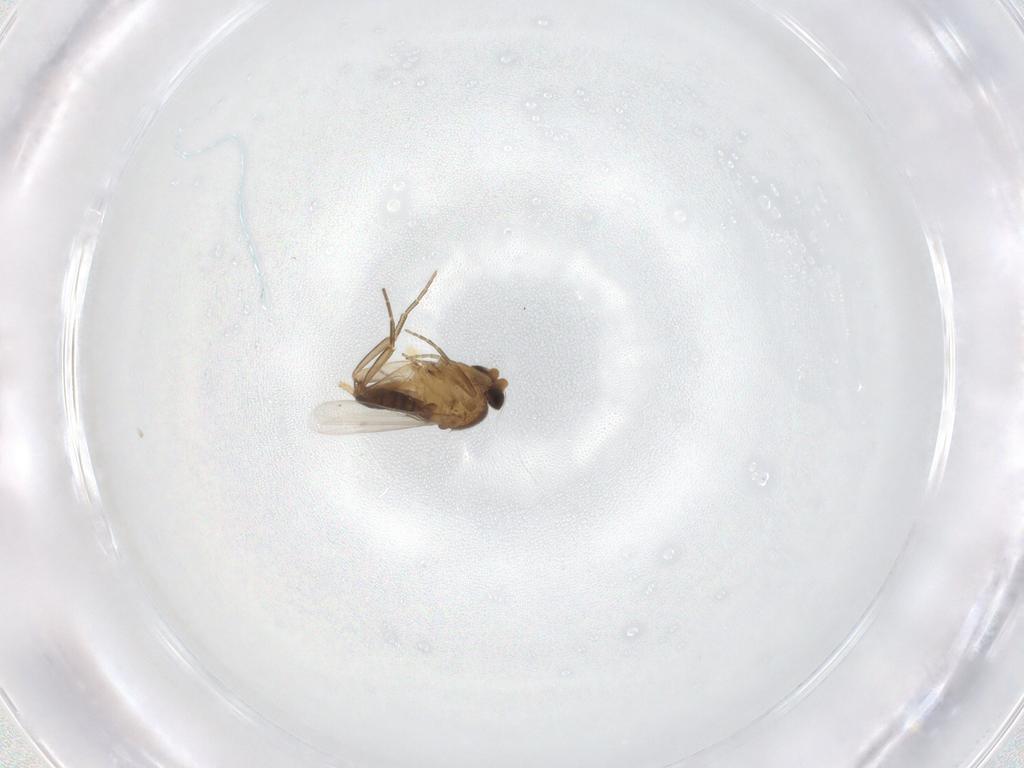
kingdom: Animalia
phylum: Arthropoda
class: Insecta
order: Diptera
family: Phoridae
